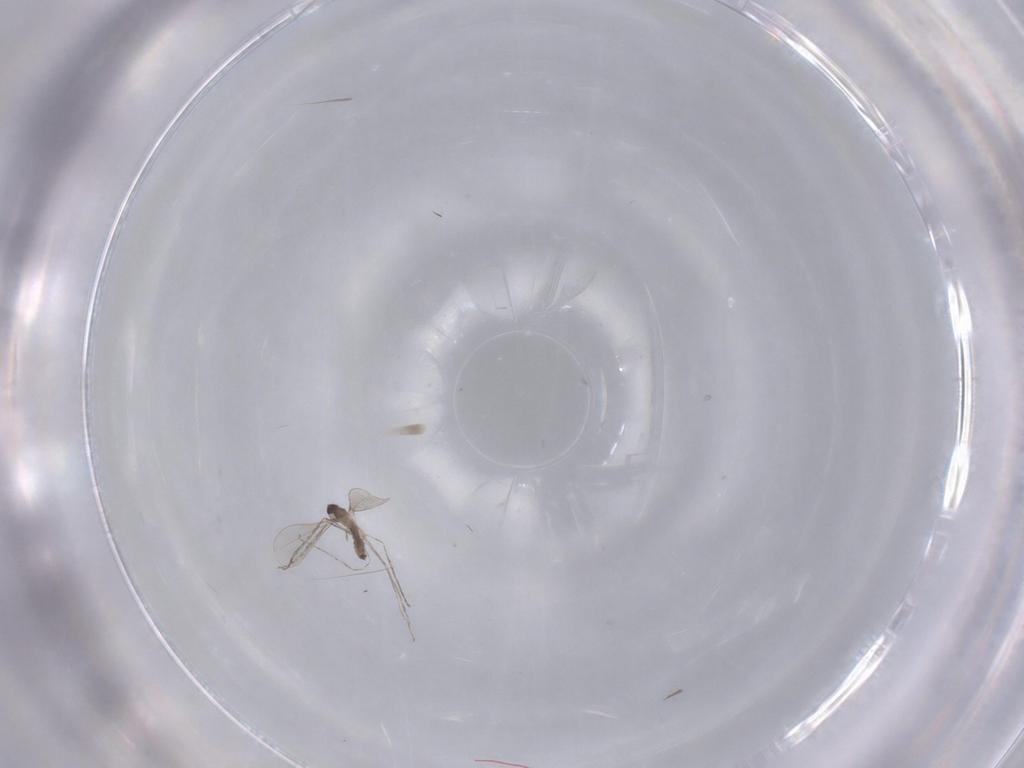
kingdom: Animalia
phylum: Arthropoda
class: Insecta
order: Diptera
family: Cecidomyiidae
